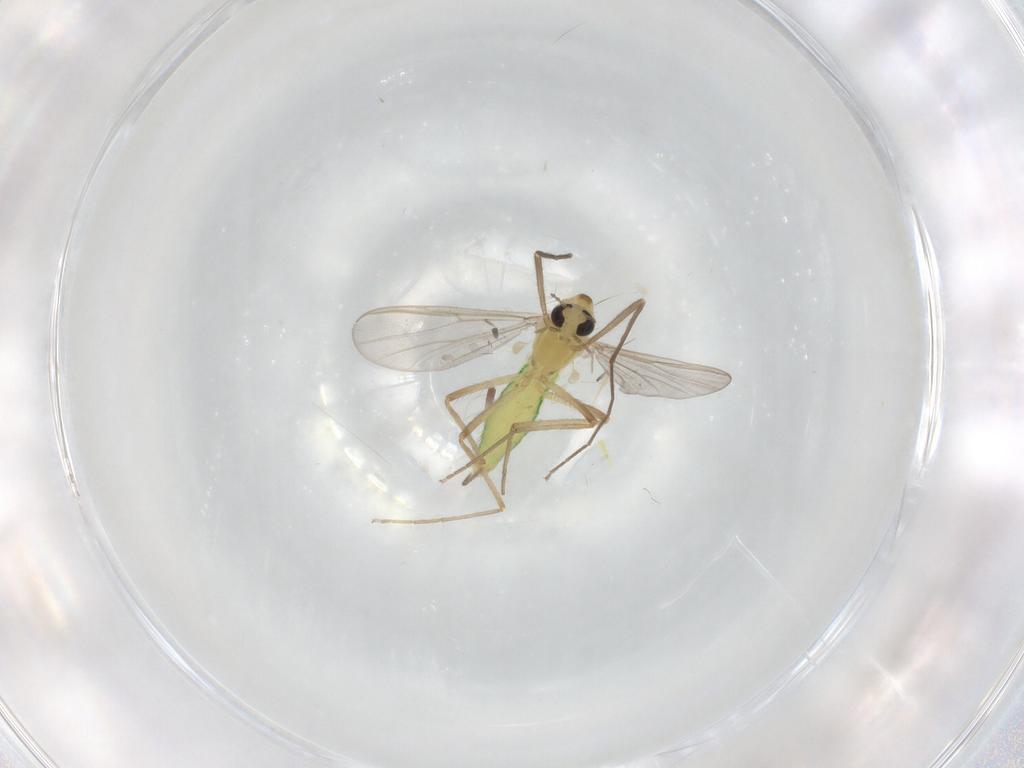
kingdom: Animalia
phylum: Arthropoda
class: Insecta
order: Diptera
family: Chironomidae
